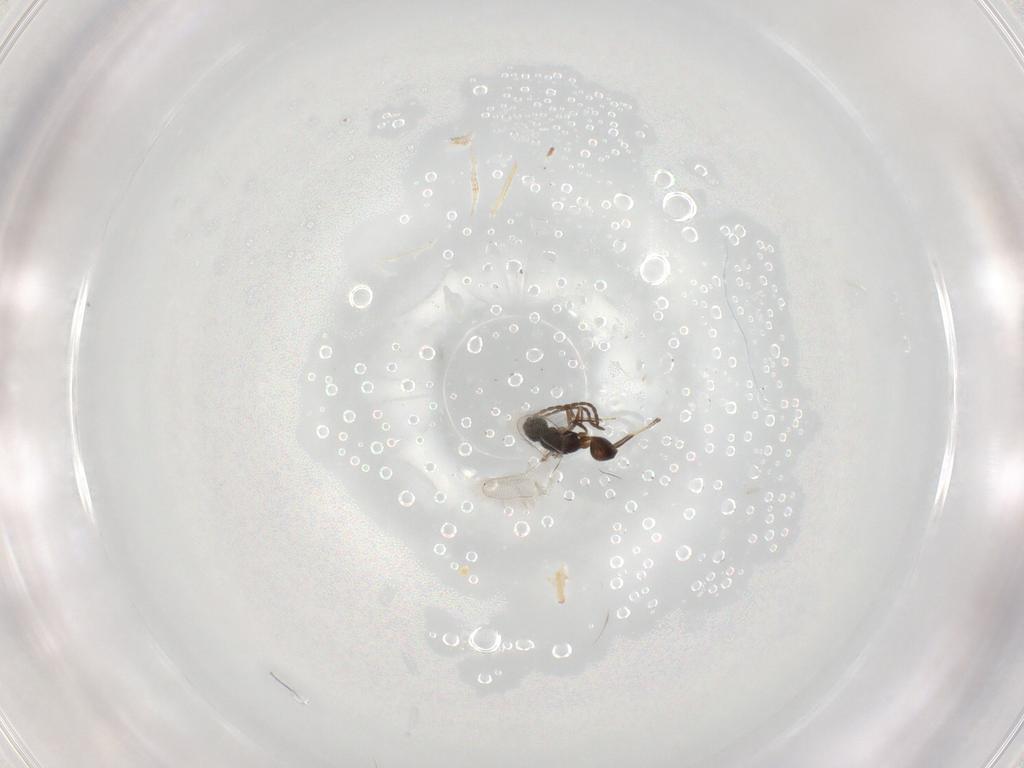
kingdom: Animalia
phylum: Arthropoda
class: Insecta
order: Hymenoptera
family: Mymaridae
